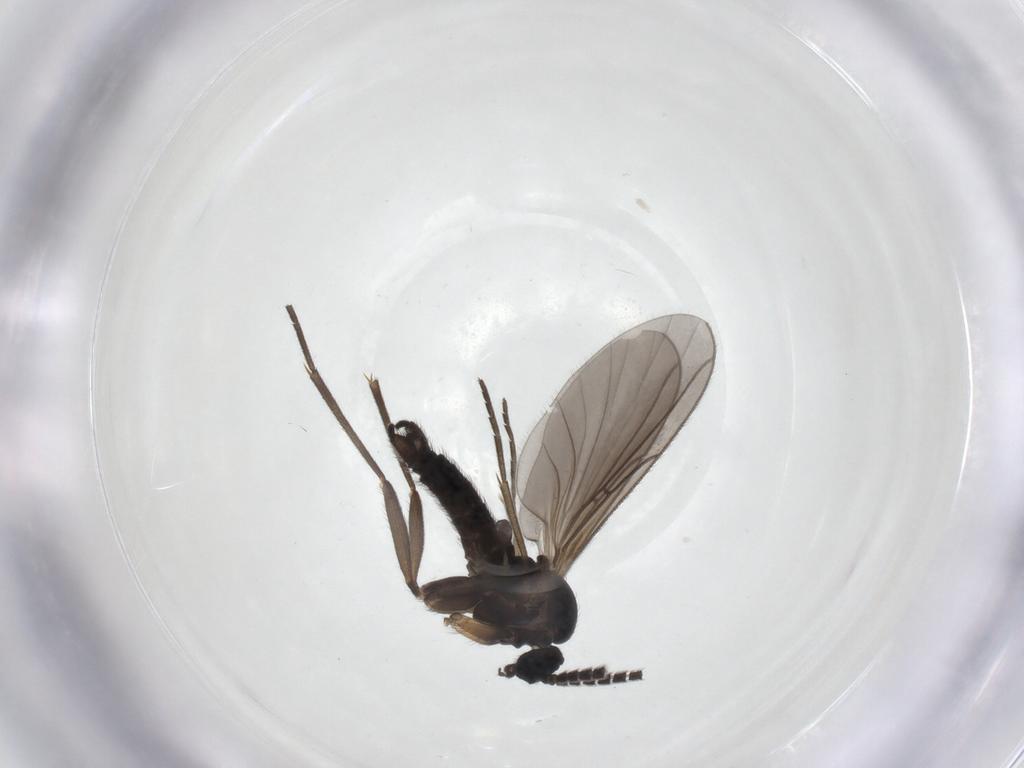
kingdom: Animalia
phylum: Arthropoda
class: Insecta
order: Diptera
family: Sciaridae
